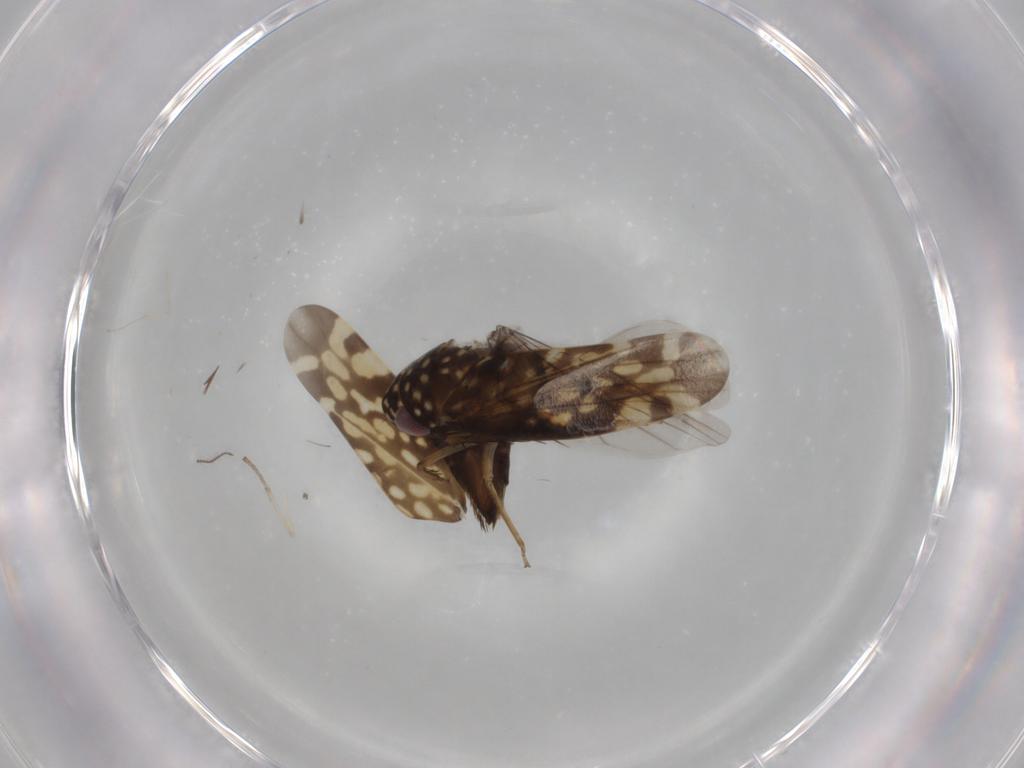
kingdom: Animalia
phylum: Arthropoda
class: Insecta
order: Hemiptera
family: Cicadellidae
